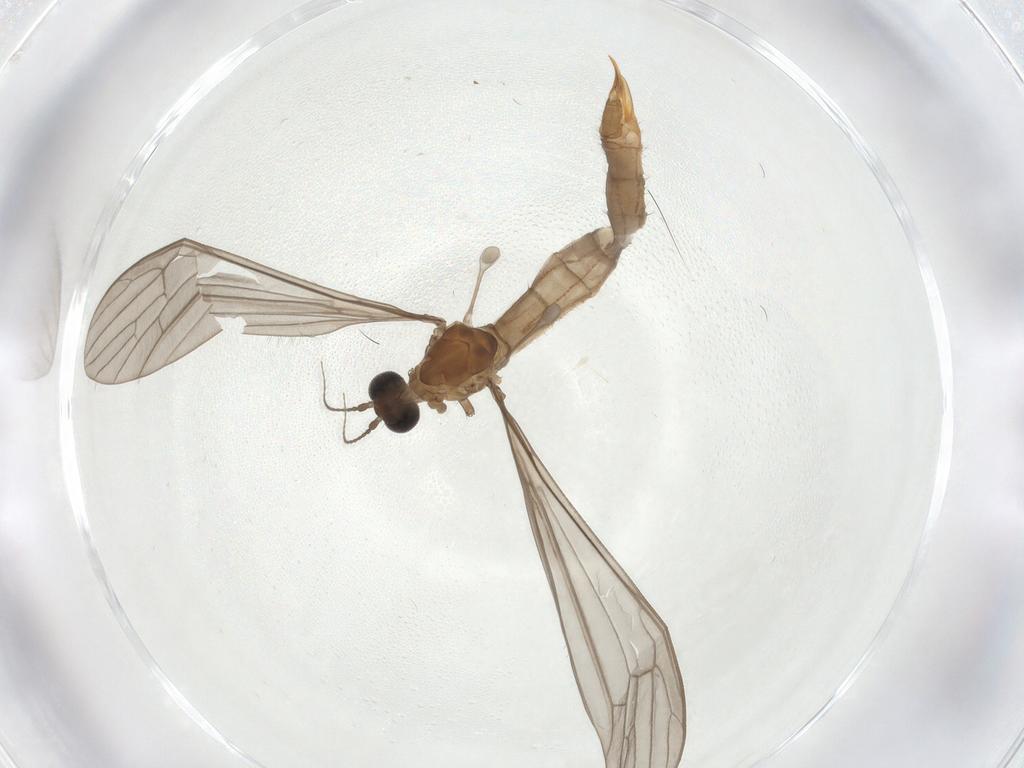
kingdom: Animalia
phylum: Arthropoda
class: Insecta
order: Diptera
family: Limoniidae
